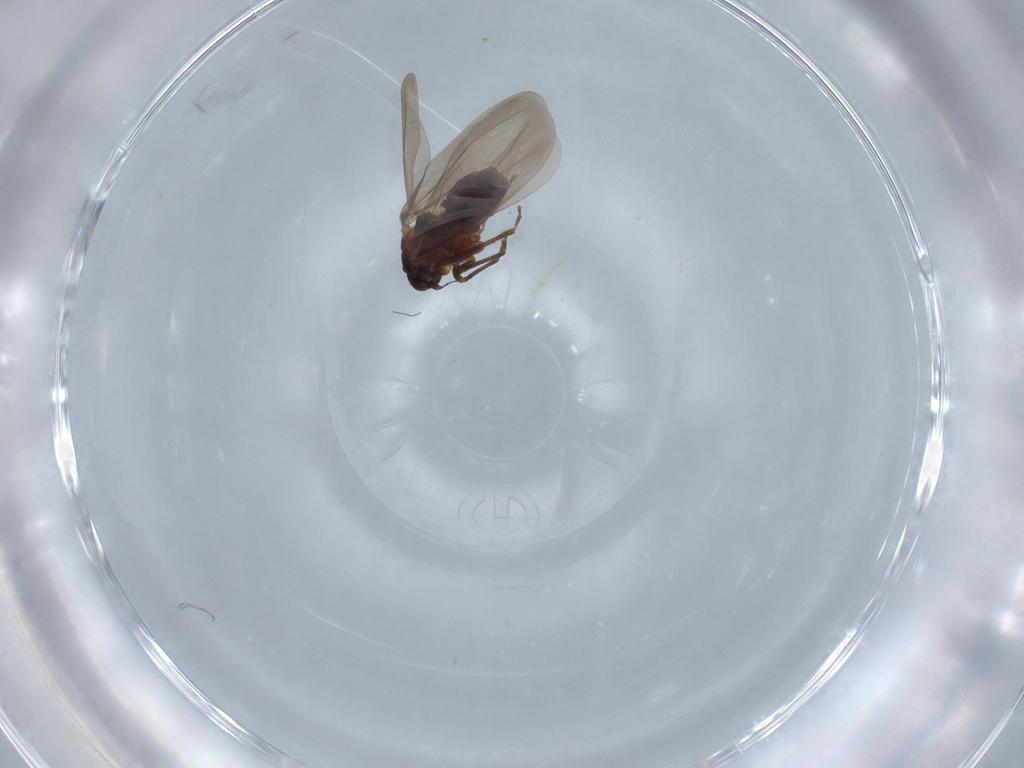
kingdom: Animalia
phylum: Arthropoda
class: Insecta
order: Hemiptera
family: Aleyrodidae
